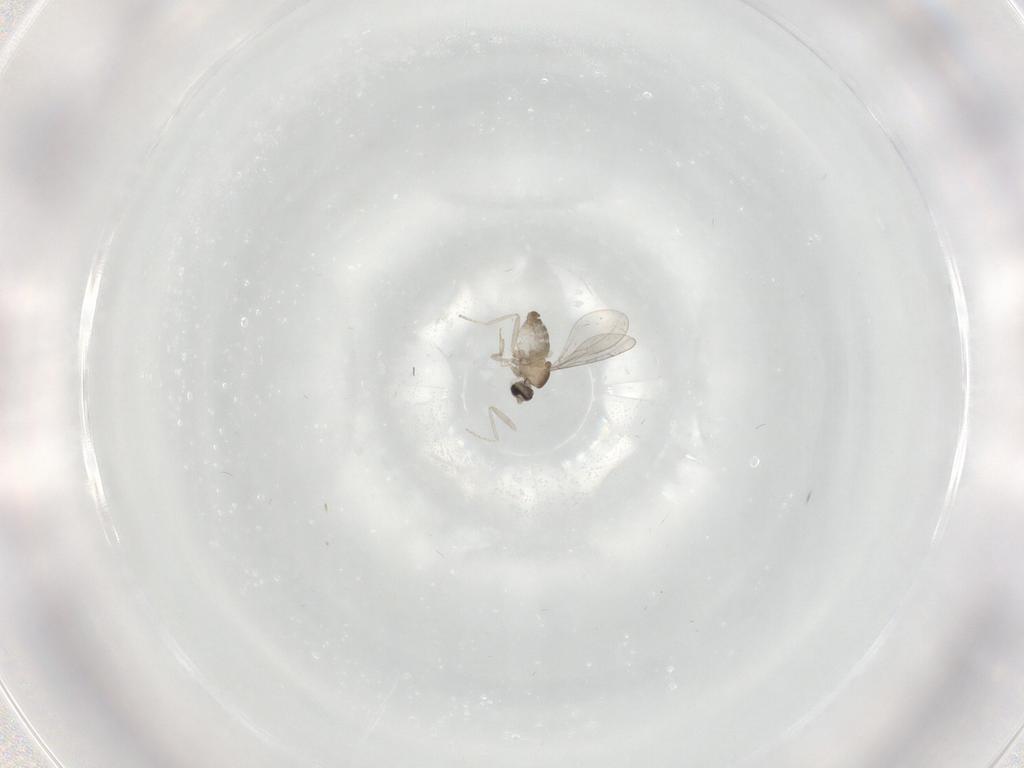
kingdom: Animalia
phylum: Arthropoda
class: Insecta
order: Diptera
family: Cecidomyiidae
